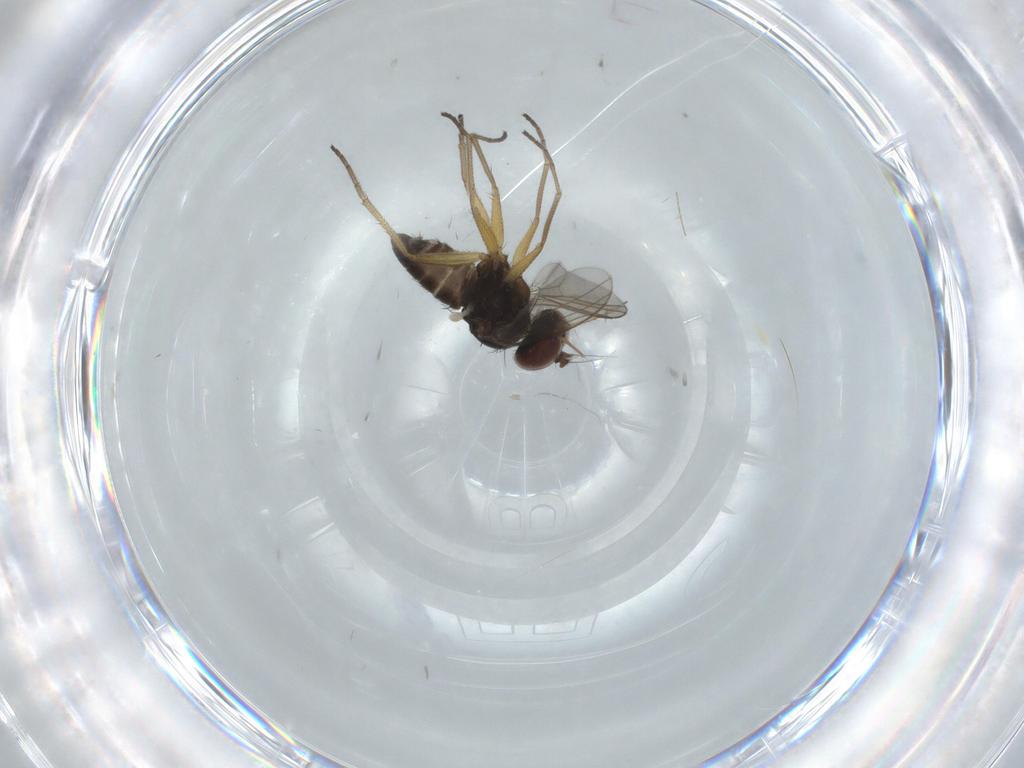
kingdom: Animalia
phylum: Arthropoda
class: Insecta
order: Diptera
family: Dolichopodidae
